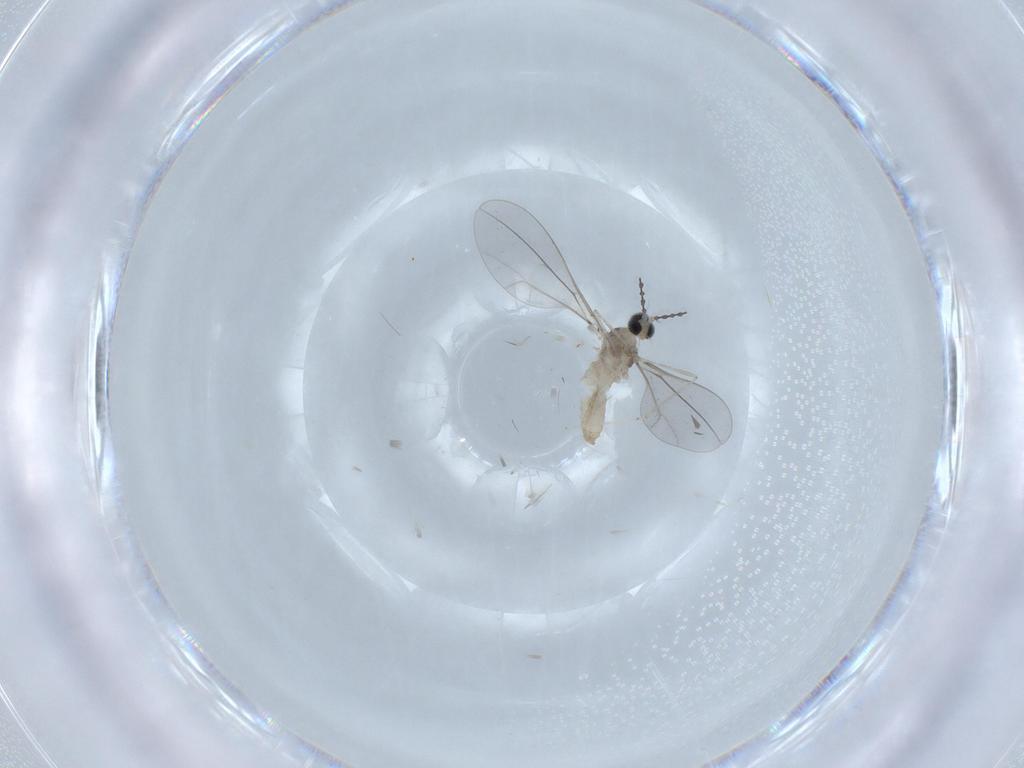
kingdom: Animalia
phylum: Arthropoda
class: Insecta
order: Diptera
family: Cecidomyiidae
